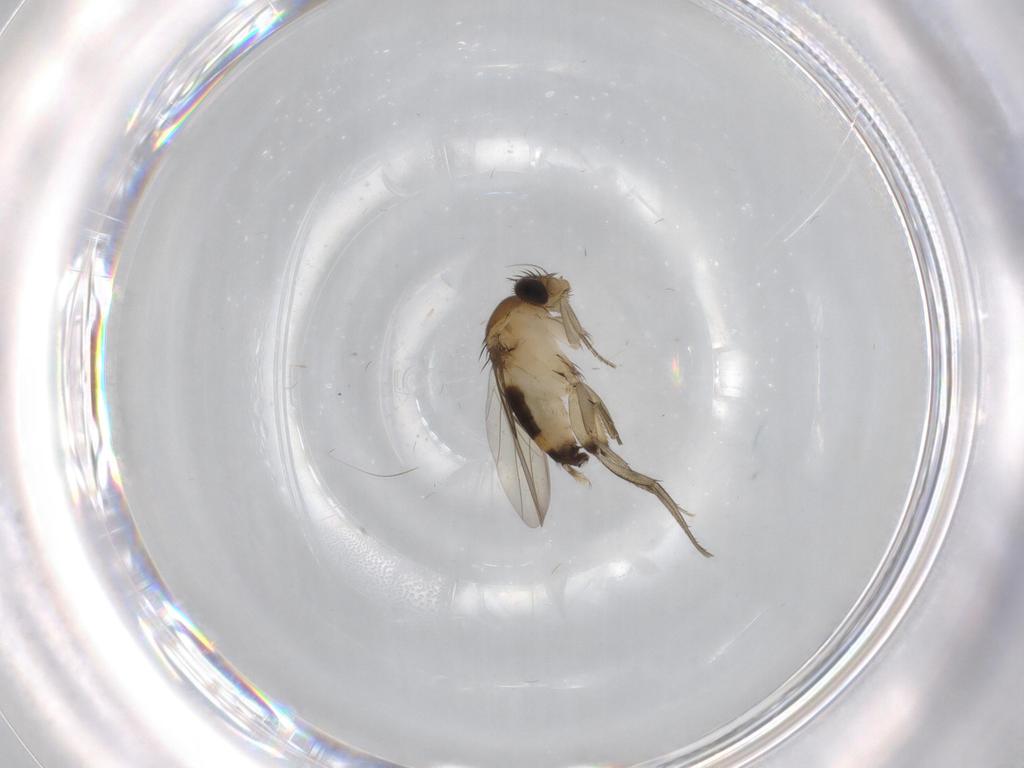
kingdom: Animalia
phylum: Arthropoda
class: Insecta
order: Diptera
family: Phoridae
